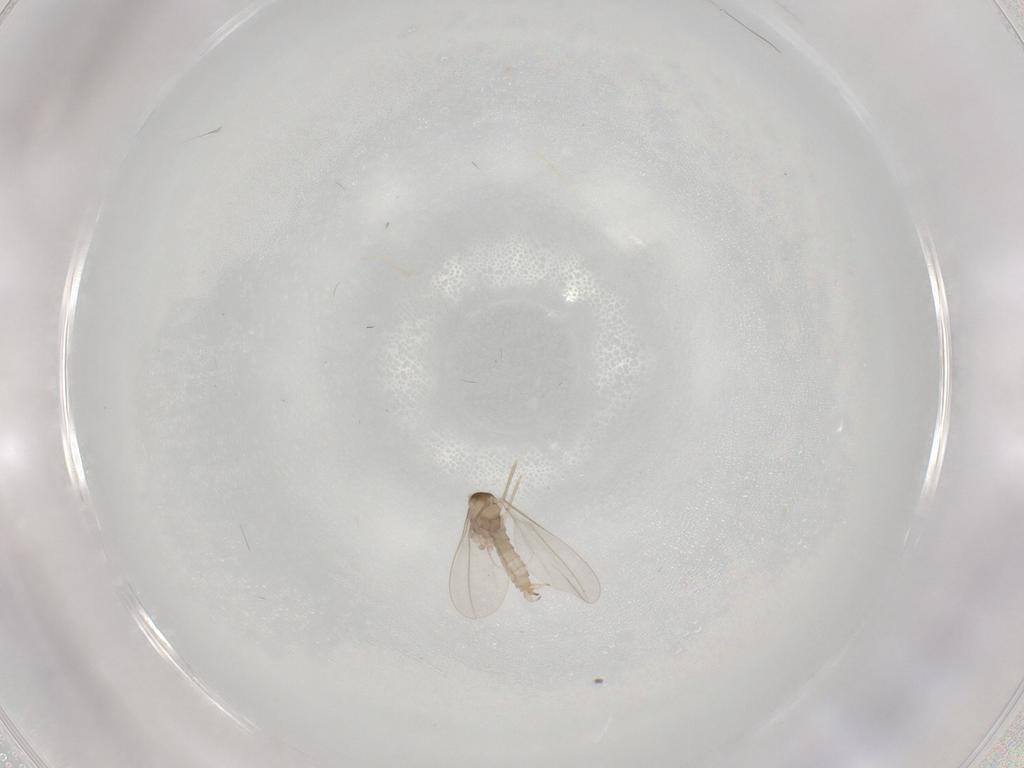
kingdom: Animalia
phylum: Arthropoda
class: Insecta
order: Diptera
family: Cecidomyiidae
